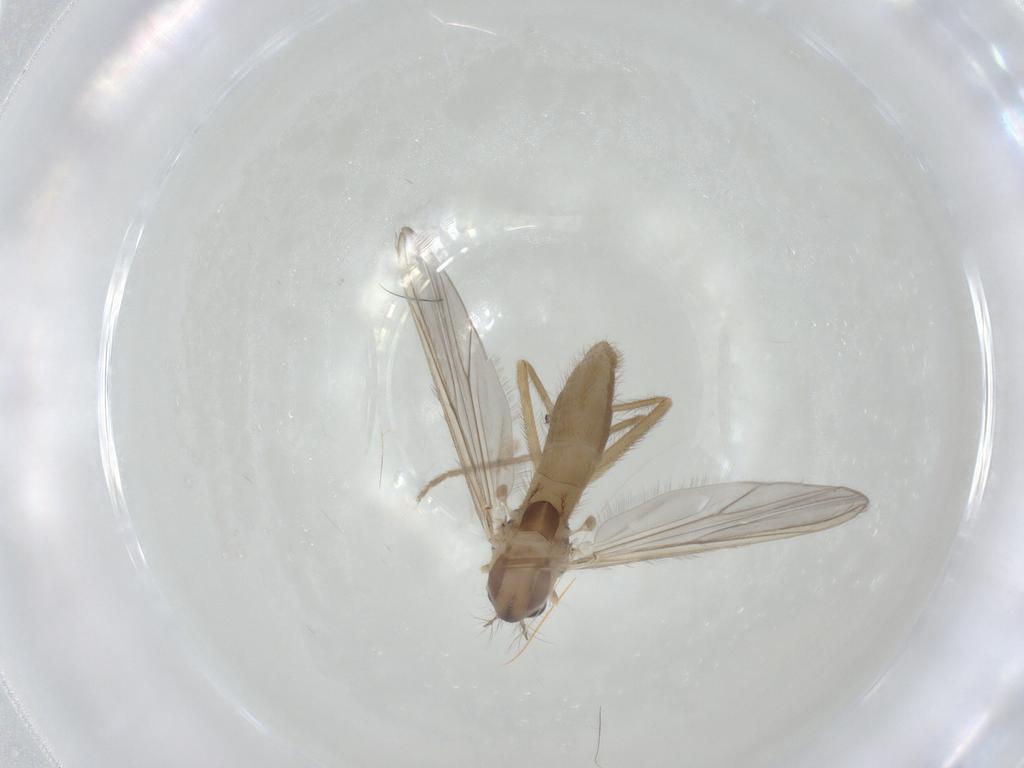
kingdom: Animalia
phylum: Arthropoda
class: Insecta
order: Diptera
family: Chironomidae
